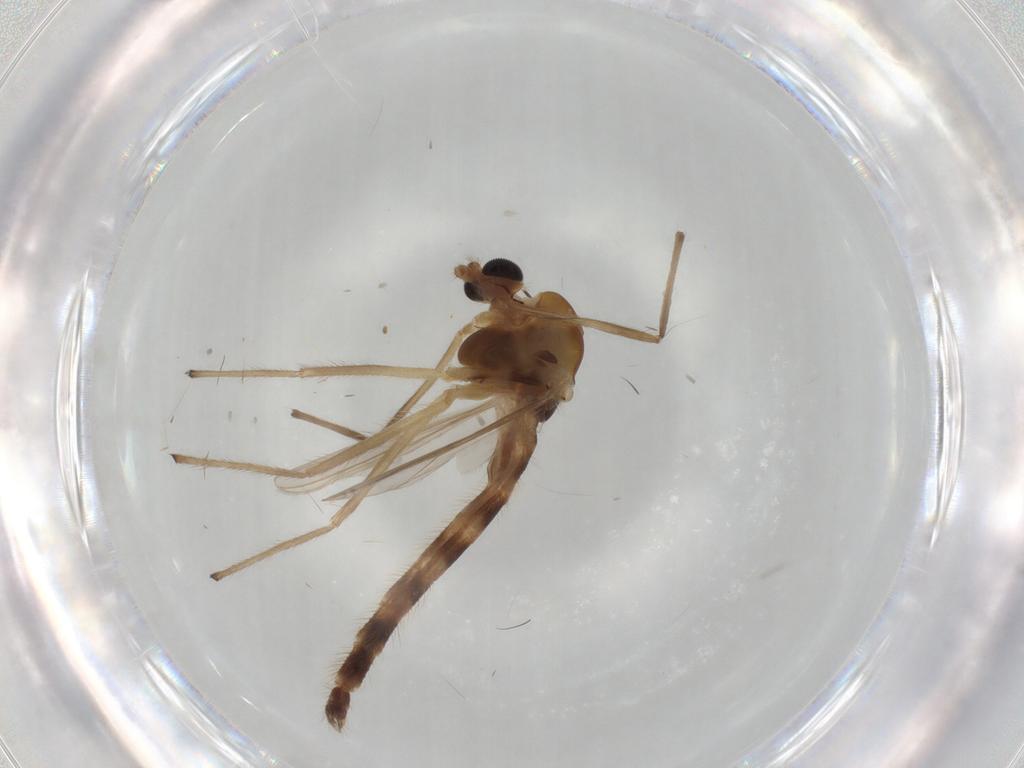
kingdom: Animalia
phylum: Arthropoda
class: Insecta
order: Diptera
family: Chironomidae
